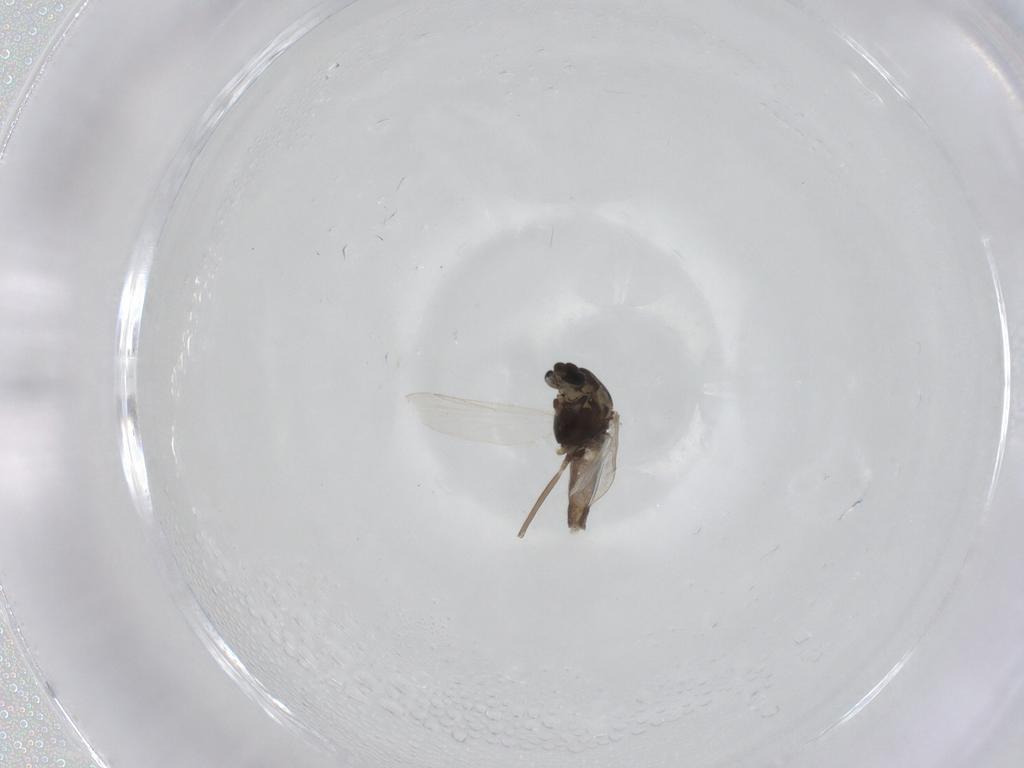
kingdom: Animalia
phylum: Arthropoda
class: Insecta
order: Diptera
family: Chironomidae
